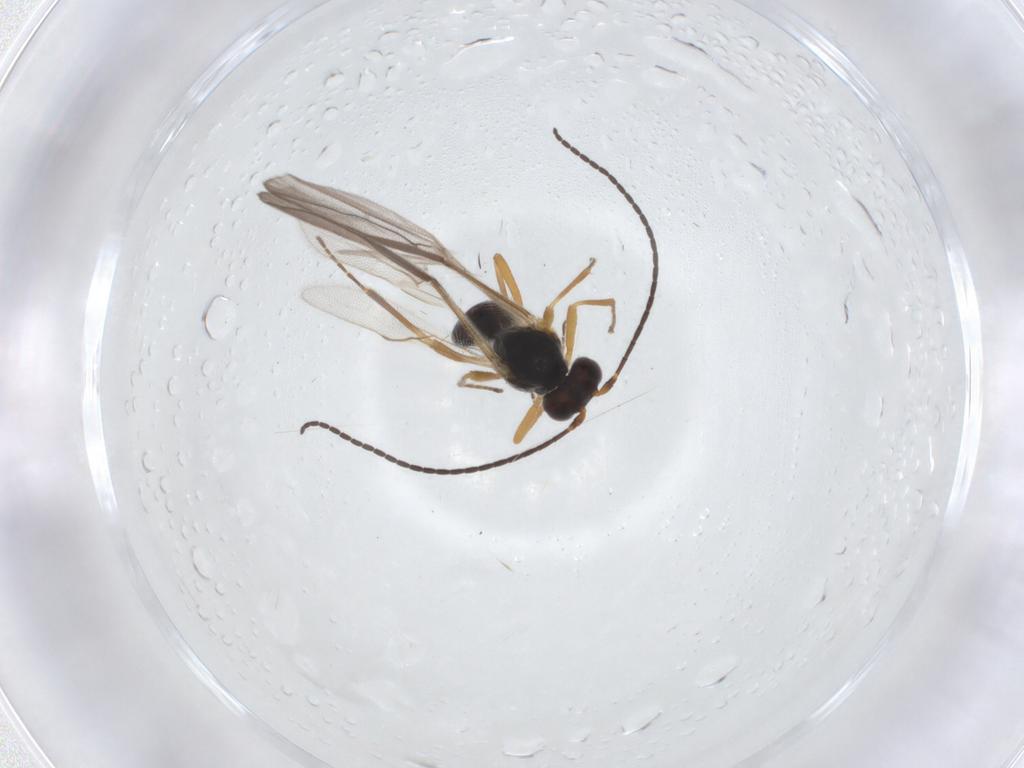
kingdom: Animalia
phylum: Arthropoda
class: Insecta
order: Hymenoptera
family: Braconidae
